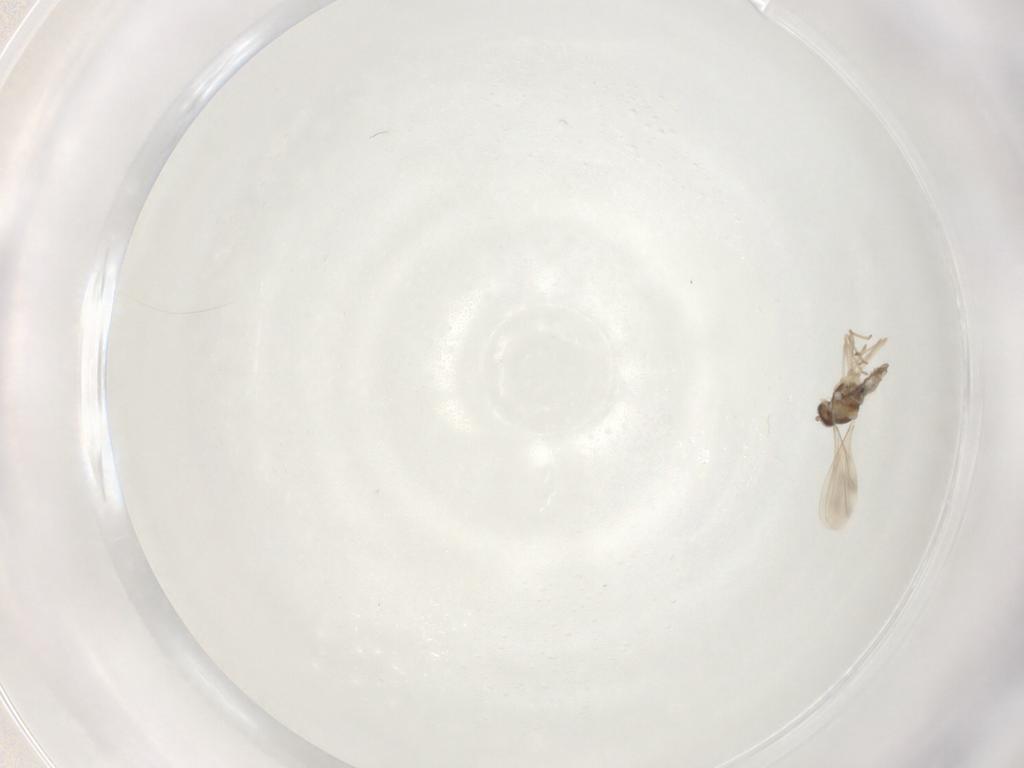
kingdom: Animalia
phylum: Arthropoda
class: Insecta
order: Diptera
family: Cecidomyiidae
